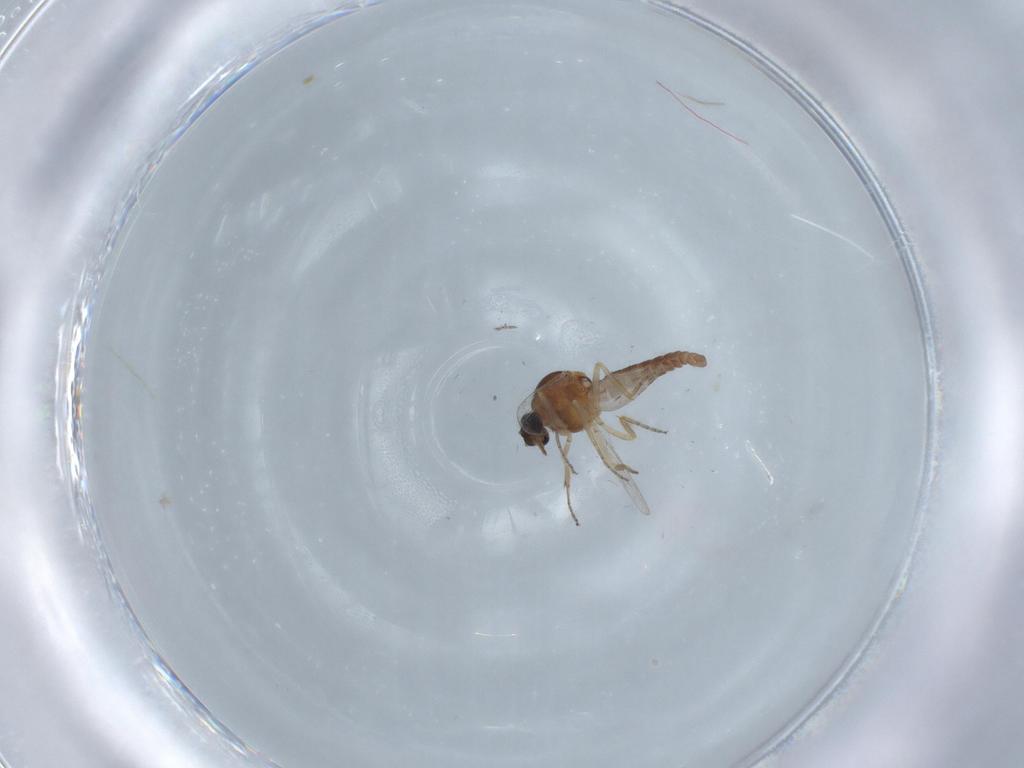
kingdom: Animalia
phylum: Arthropoda
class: Insecta
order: Diptera
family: Ceratopogonidae
